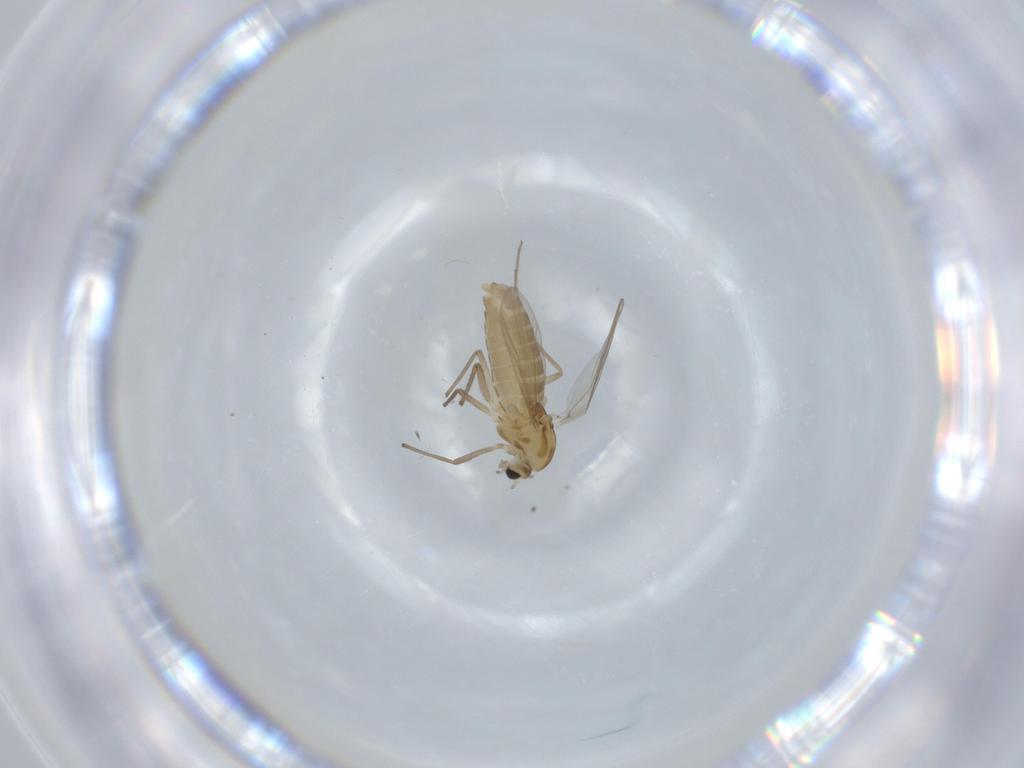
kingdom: Animalia
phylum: Arthropoda
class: Insecta
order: Diptera
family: Chironomidae
